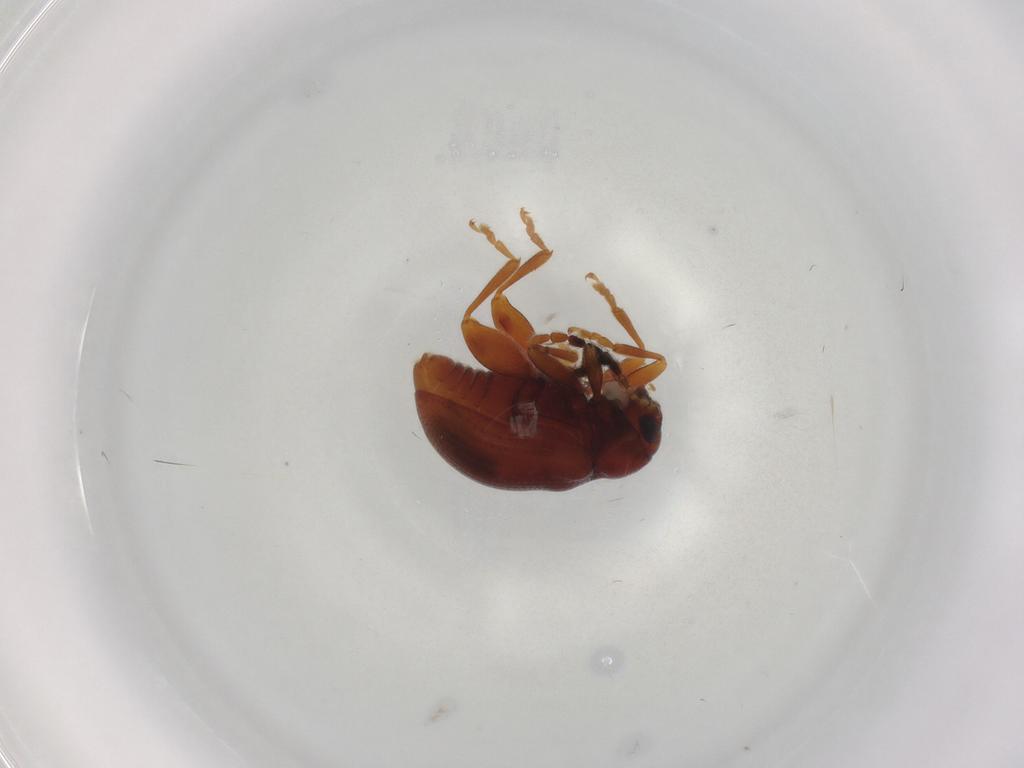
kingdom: Animalia
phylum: Arthropoda
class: Insecta
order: Coleoptera
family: Chrysomelidae
